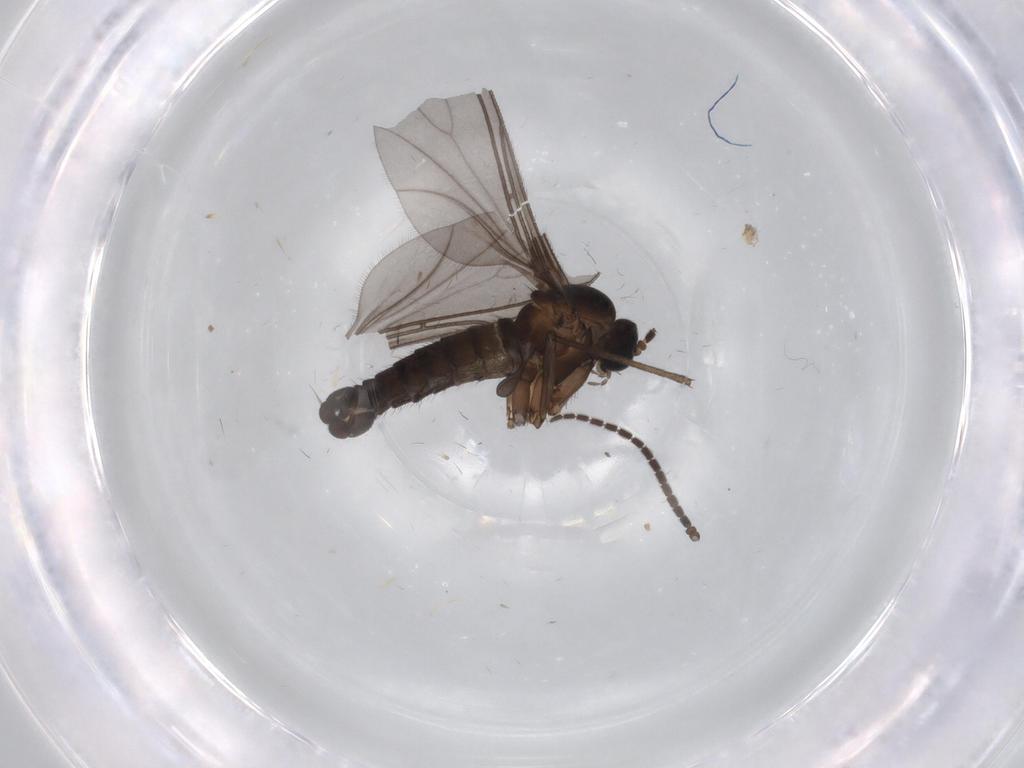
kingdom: Animalia
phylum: Arthropoda
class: Insecta
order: Diptera
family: Sciaridae
